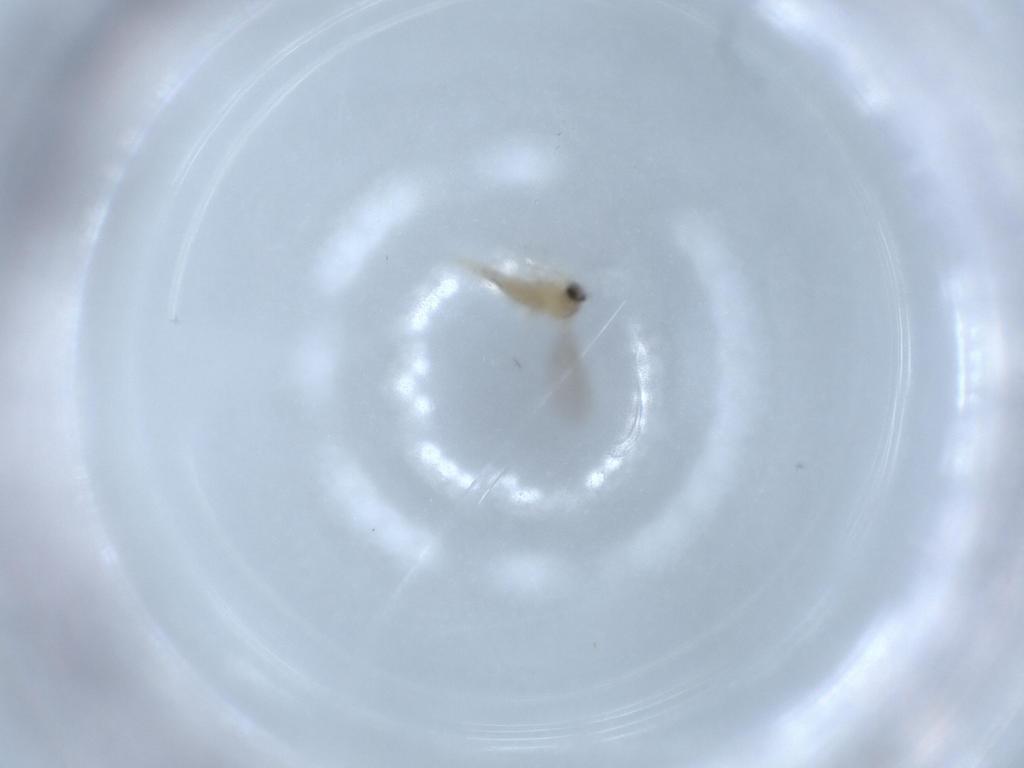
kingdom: Animalia
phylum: Arthropoda
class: Insecta
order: Diptera
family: Cecidomyiidae
